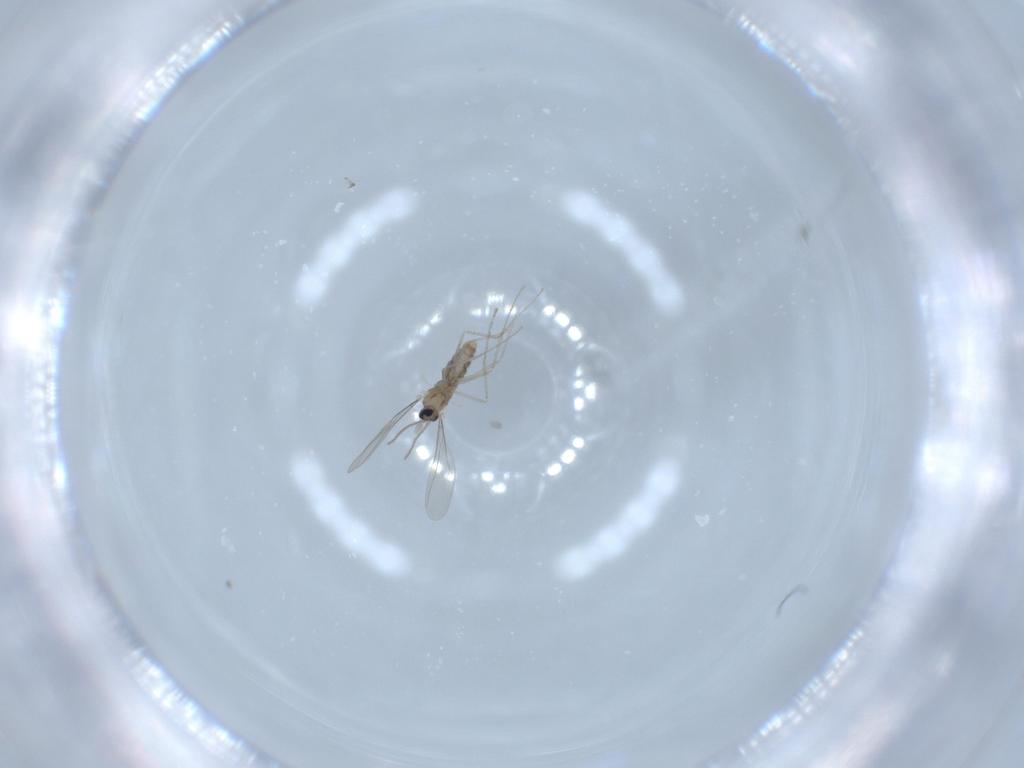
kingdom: Animalia
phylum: Arthropoda
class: Insecta
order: Diptera
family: Cecidomyiidae
